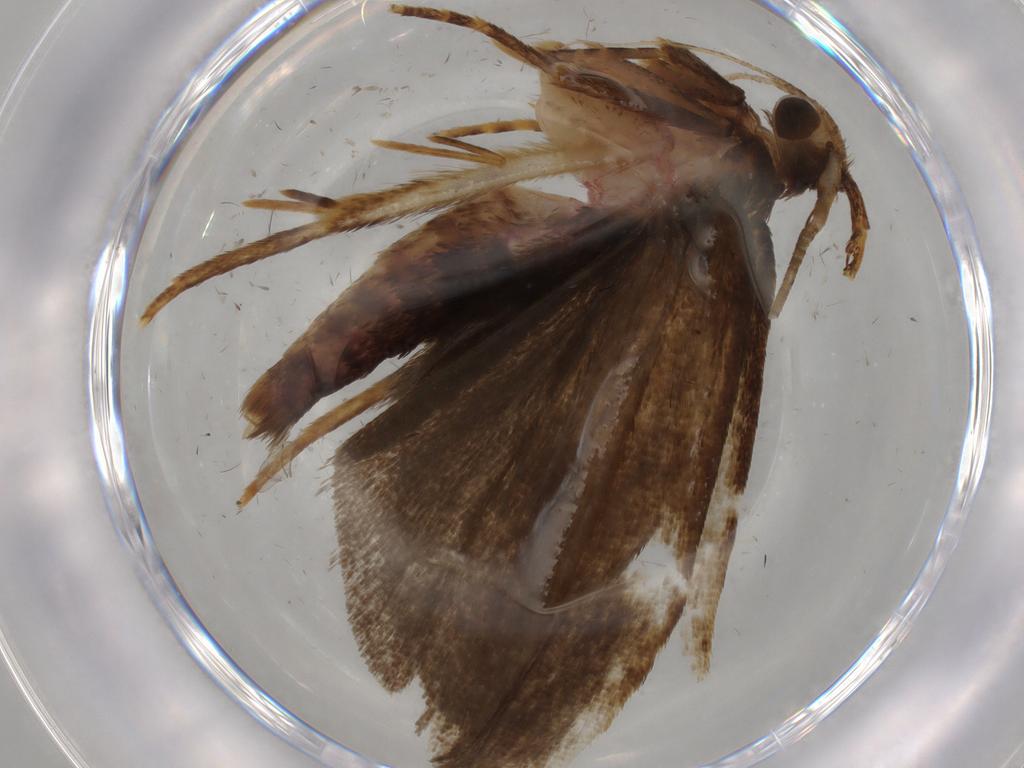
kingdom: Animalia
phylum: Arthropoda
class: Insecta
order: Lepidoptera
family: Autostichidae
